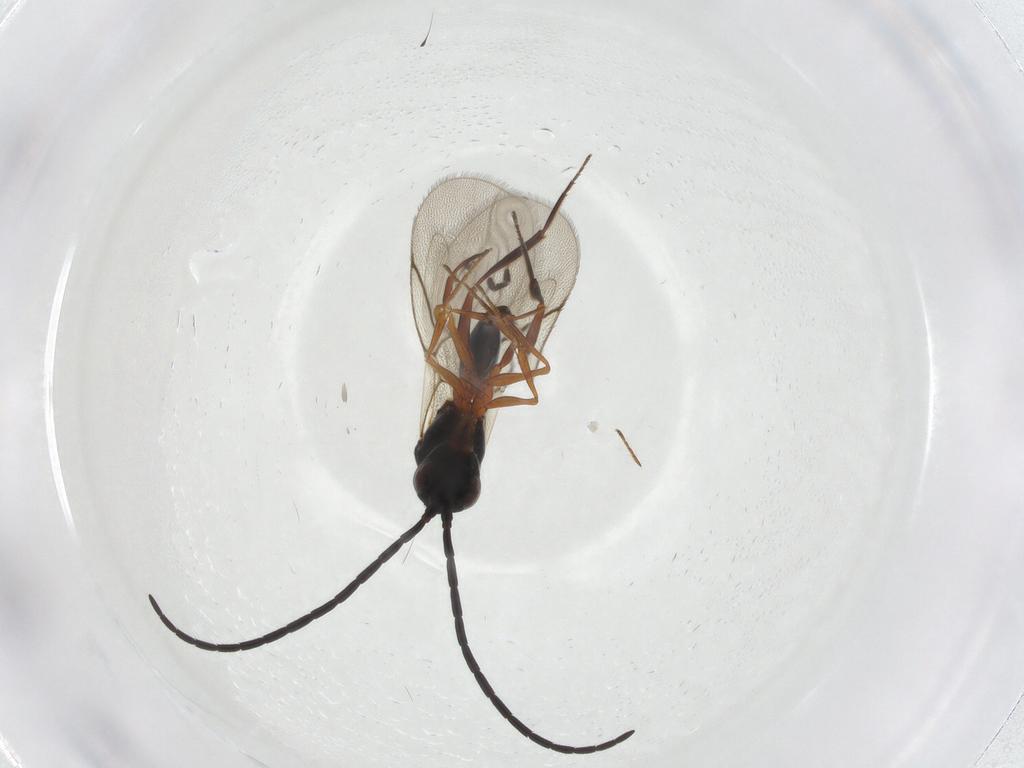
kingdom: Animalia
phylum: Arthropoda
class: Insecta
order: Hymenoptera
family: Figitidae
